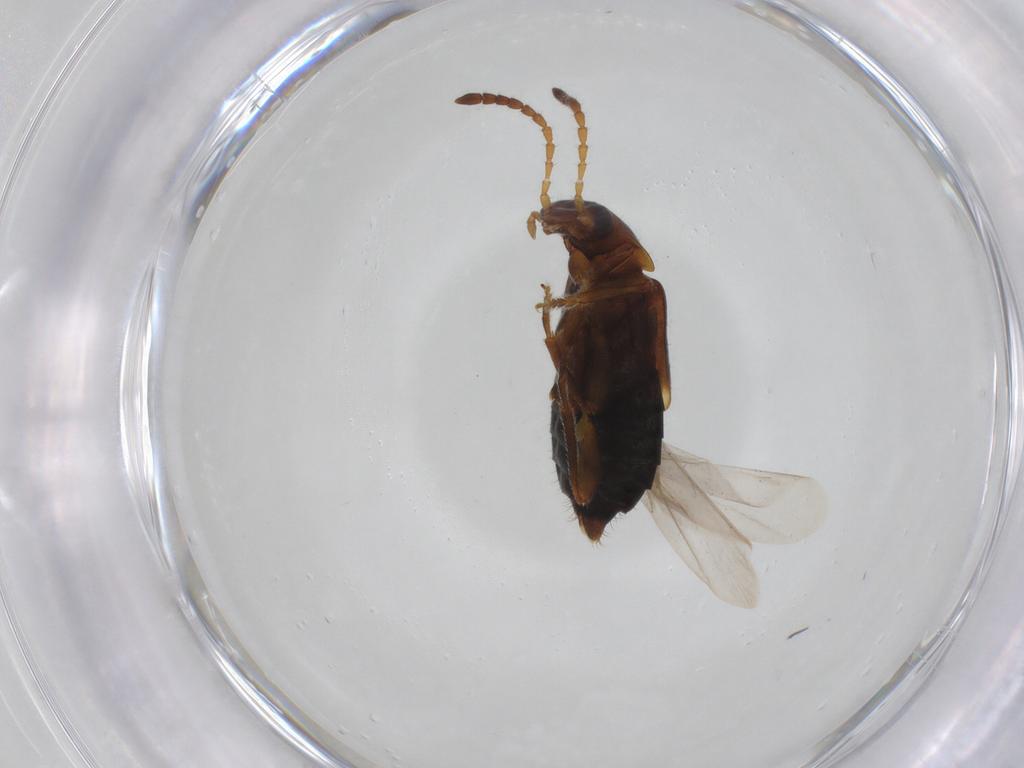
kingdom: Animalia
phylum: Arthropoda
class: Insecta
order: Coleoptera
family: Staphylinidae
